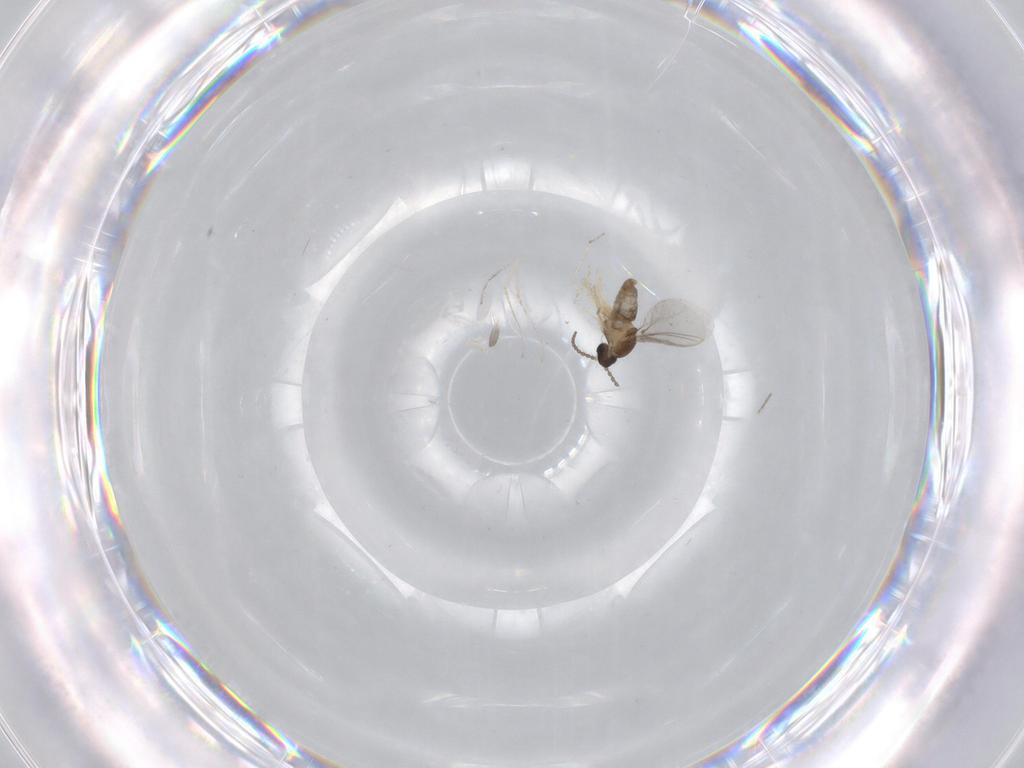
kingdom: Animalia
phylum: Arthropoda
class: Insecta
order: Diptera
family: Cecidomyiidae
